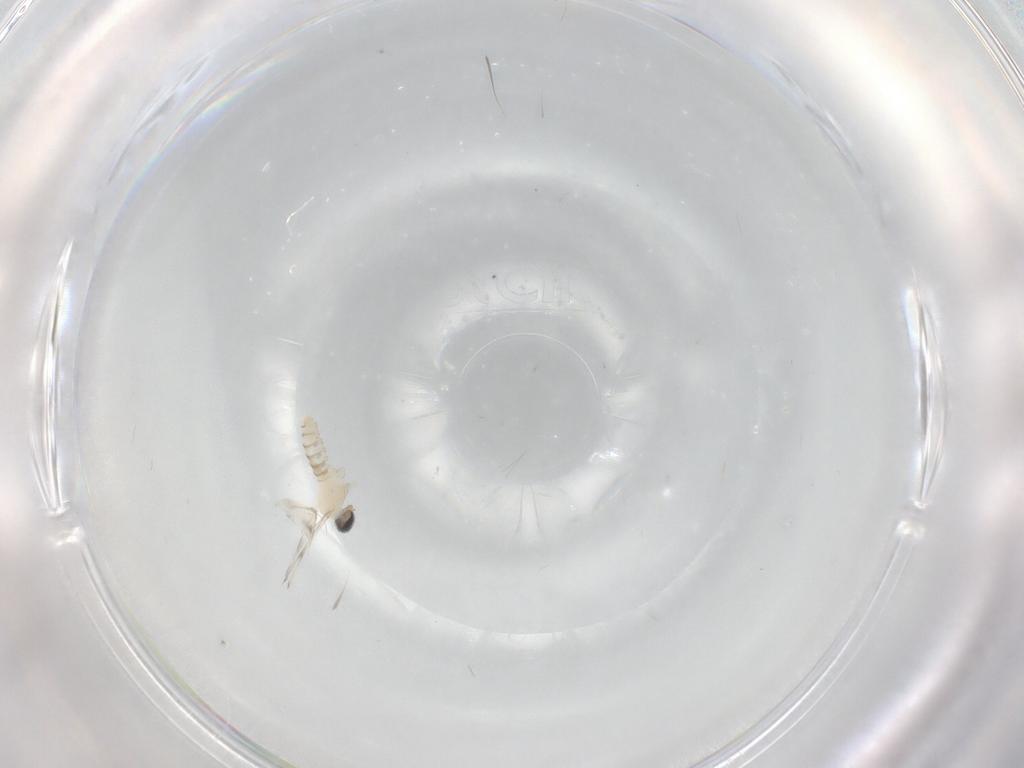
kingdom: Animalia
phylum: Arthropoda
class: Insecta
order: Diptera
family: Cecidomyiidae
